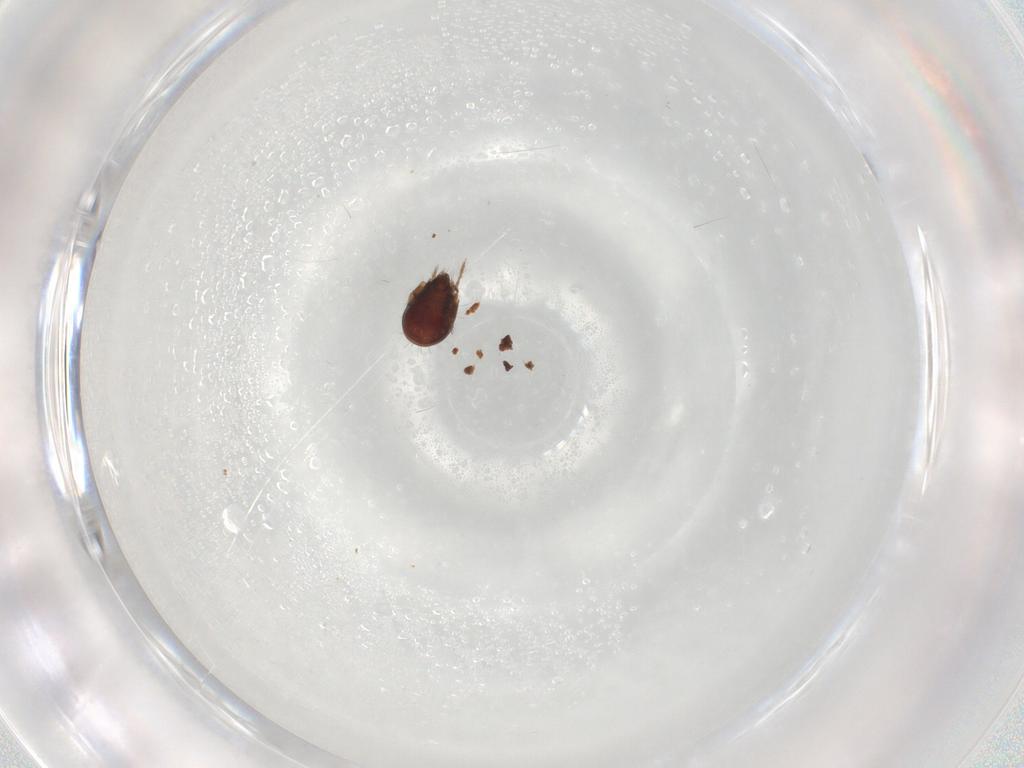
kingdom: Animalia
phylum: Arthropoda
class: Arachnida
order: Sarcoptiformes
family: Humerobatidae
